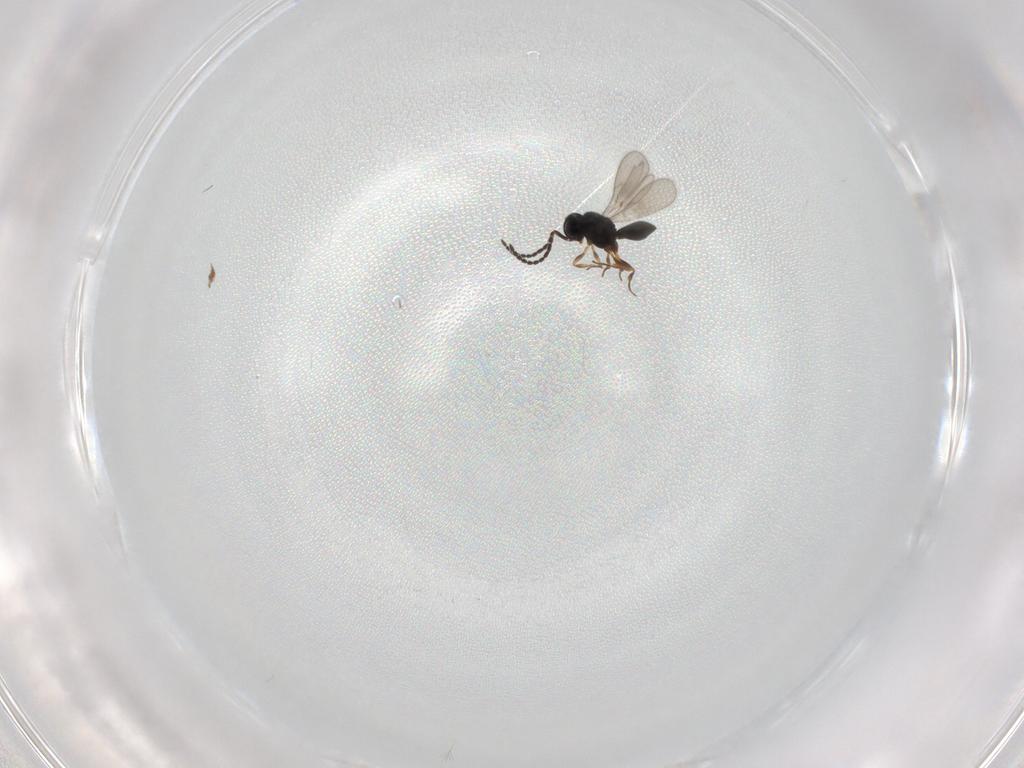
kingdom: Animalia
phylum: Arthropoda
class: Insecta
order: Hymenoptera
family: Scelionidae
